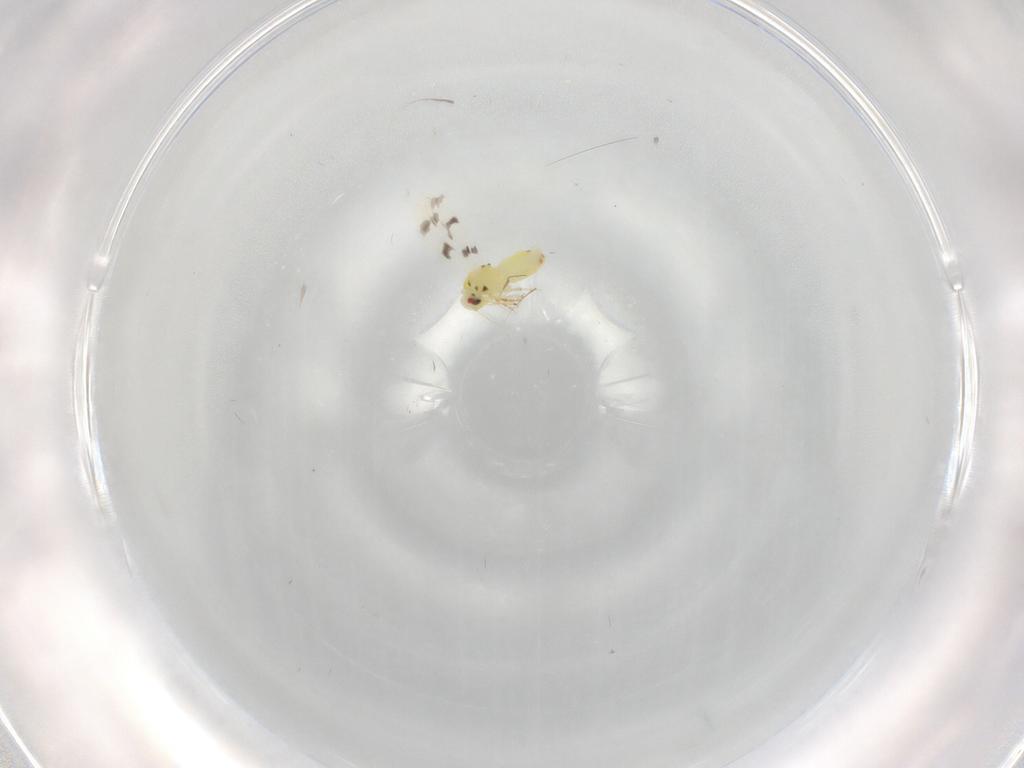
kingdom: Animalia
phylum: Arthropoda
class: Insecta
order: Hemiptera
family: Aleyrodidae
